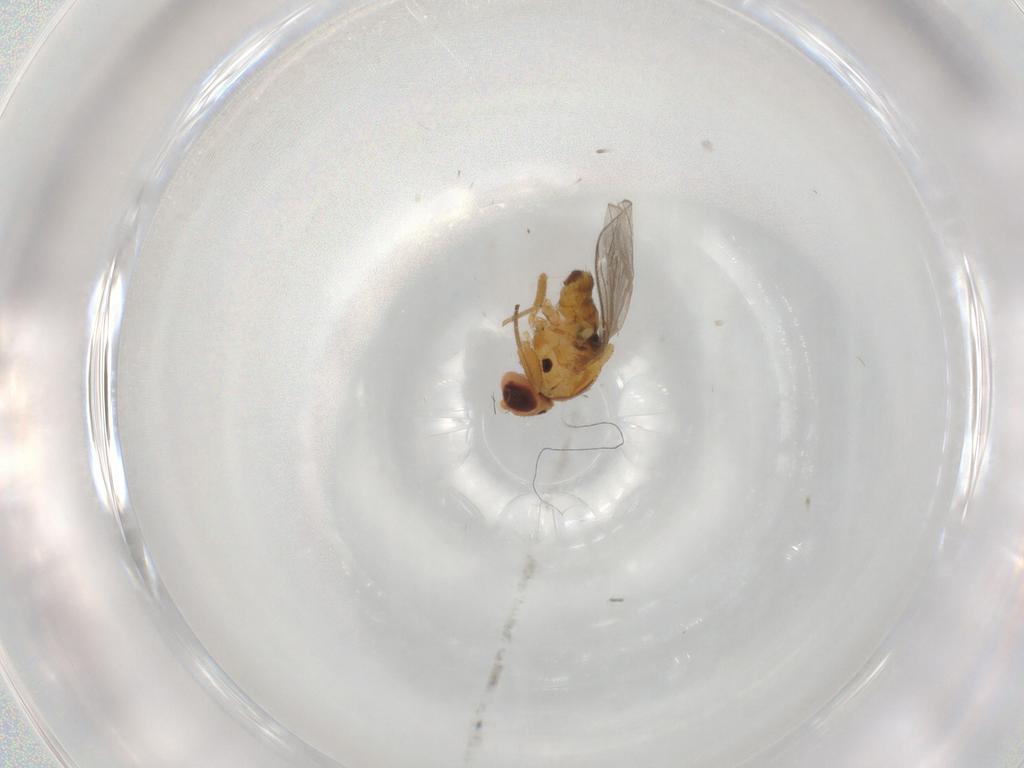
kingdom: Animalia
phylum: Arthropoda
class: Insecta
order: Diptera
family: Chloropidae
